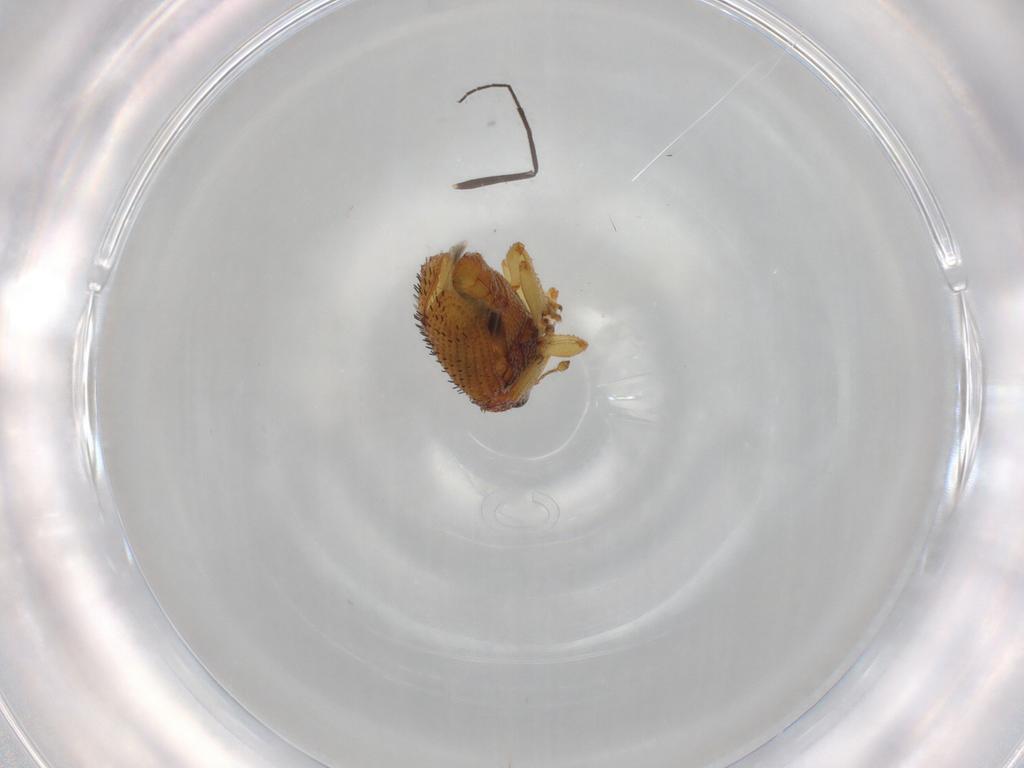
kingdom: Animalia
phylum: Arthropoda
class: Insecta
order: Coleoptera
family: Curculionidae
